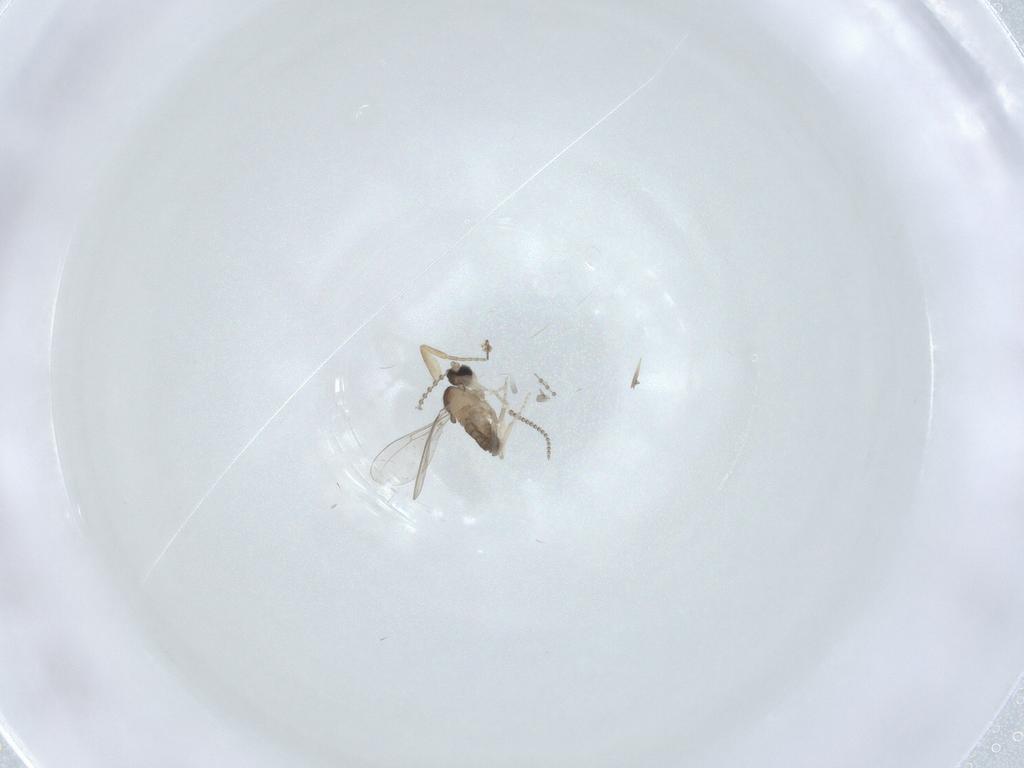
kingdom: Animalia
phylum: Arthropoda
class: Insecta
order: Diptera
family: Cecidomyiidae
